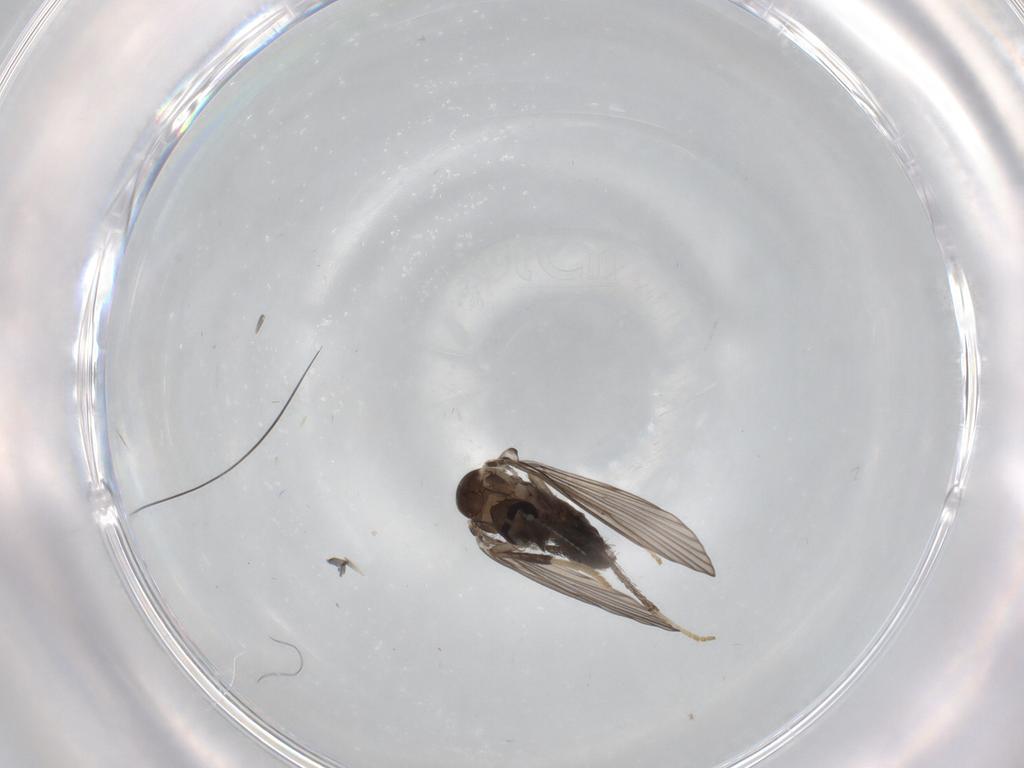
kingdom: Animalia
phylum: Arthropoda
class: Insecta
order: Diptera
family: Psychodidae
